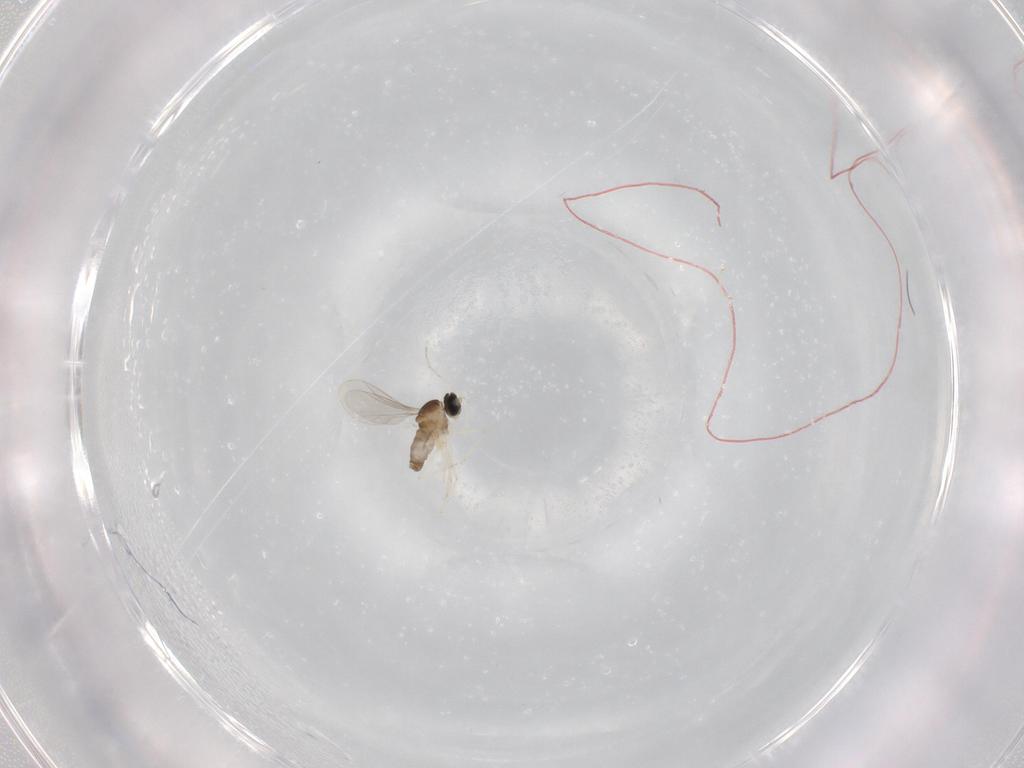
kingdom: Animalia
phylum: Arthropoda
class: Insecta
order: Diptera
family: Cecidomyiidae
